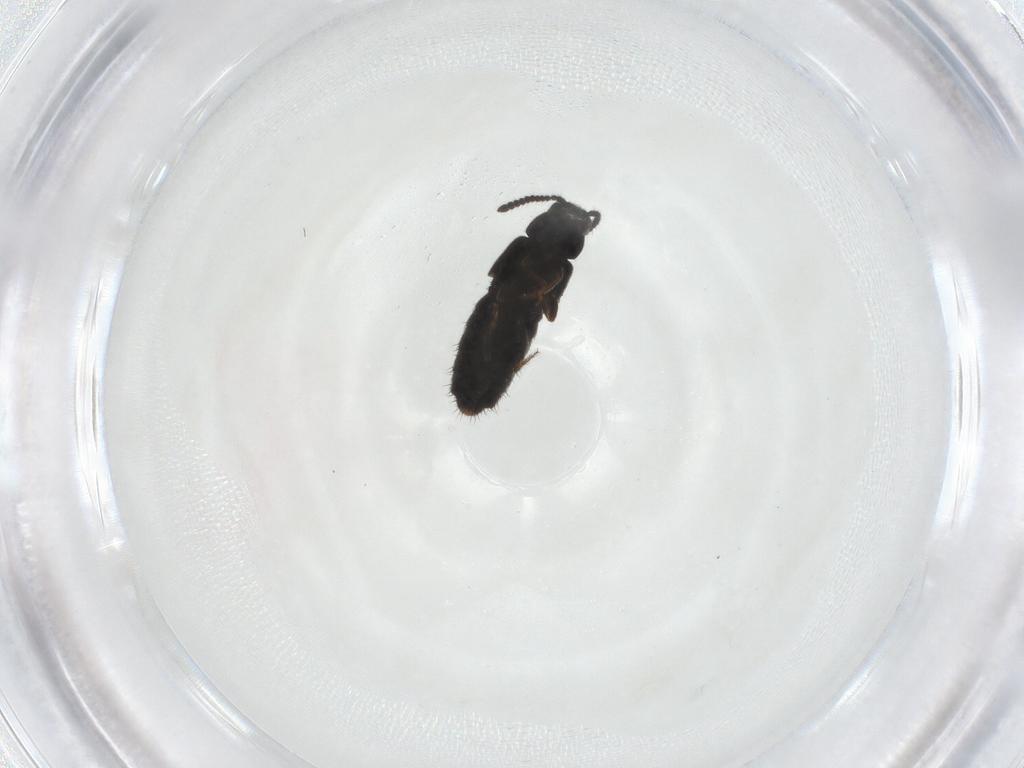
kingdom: Animalia
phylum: Arthropoda
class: Insecta
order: Coleoptera
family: Staphylinidae
